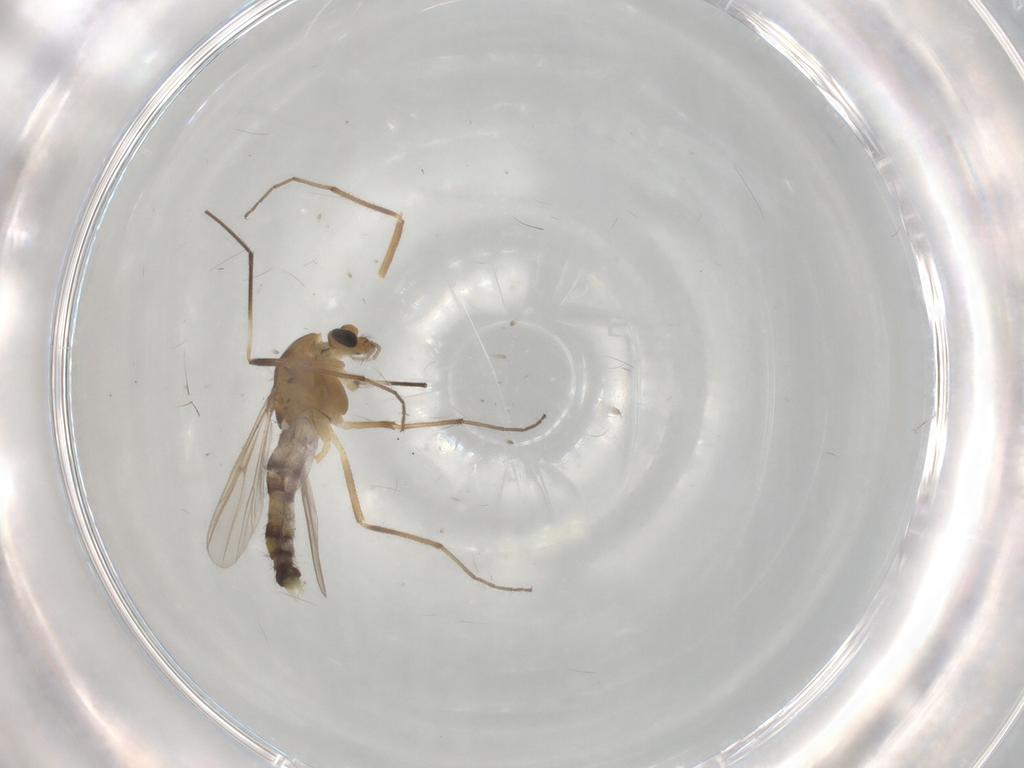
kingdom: Animalia
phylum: Arthropoda
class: Insecta
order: Diptera
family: Chironomidae
